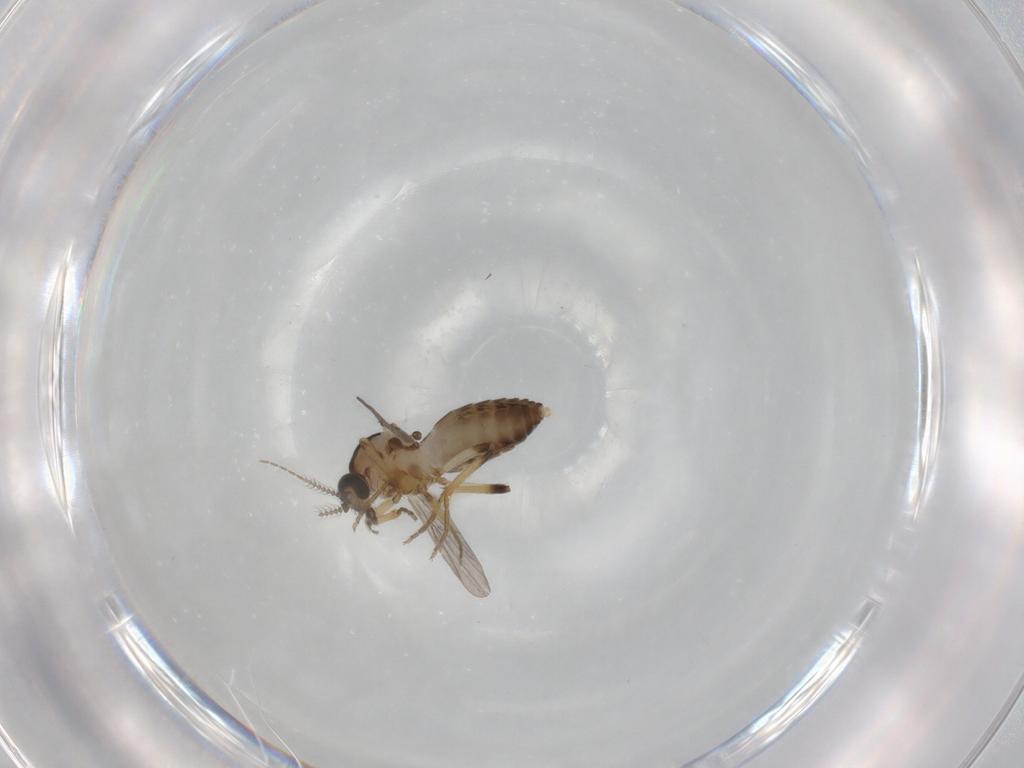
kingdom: Animalia
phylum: Arthropoda
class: Insecta
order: Diptera
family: Ceratopogonidae
